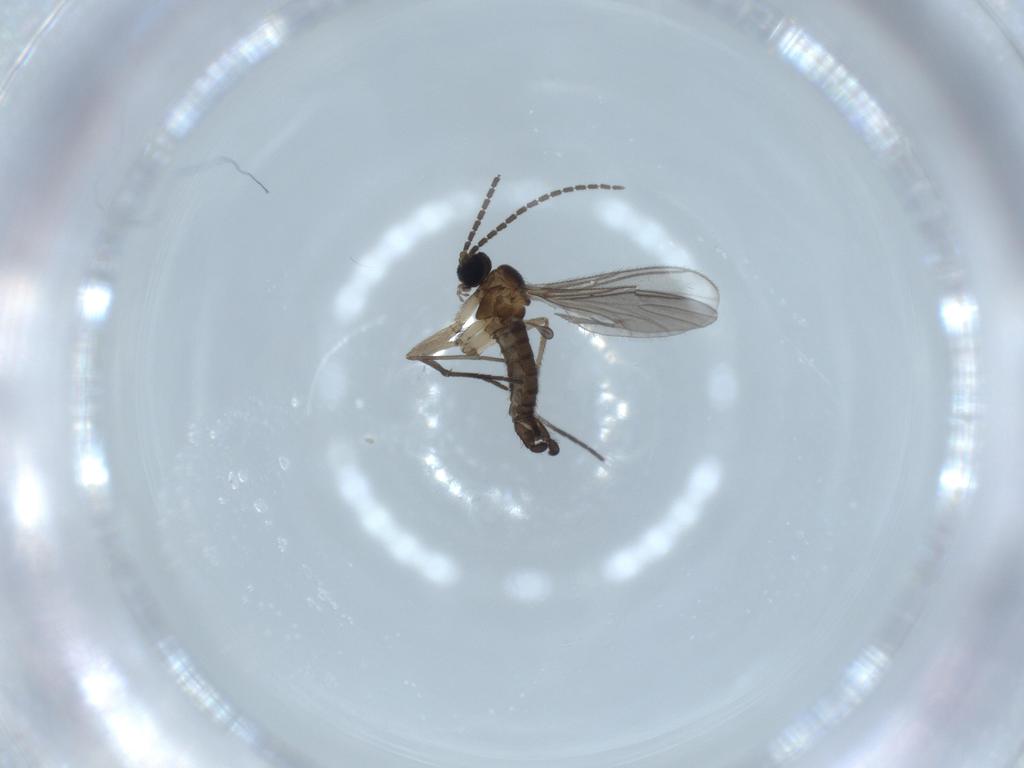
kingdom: Animalia
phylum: Arthropoda
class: Insecta
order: Diptera
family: Sciaridae
